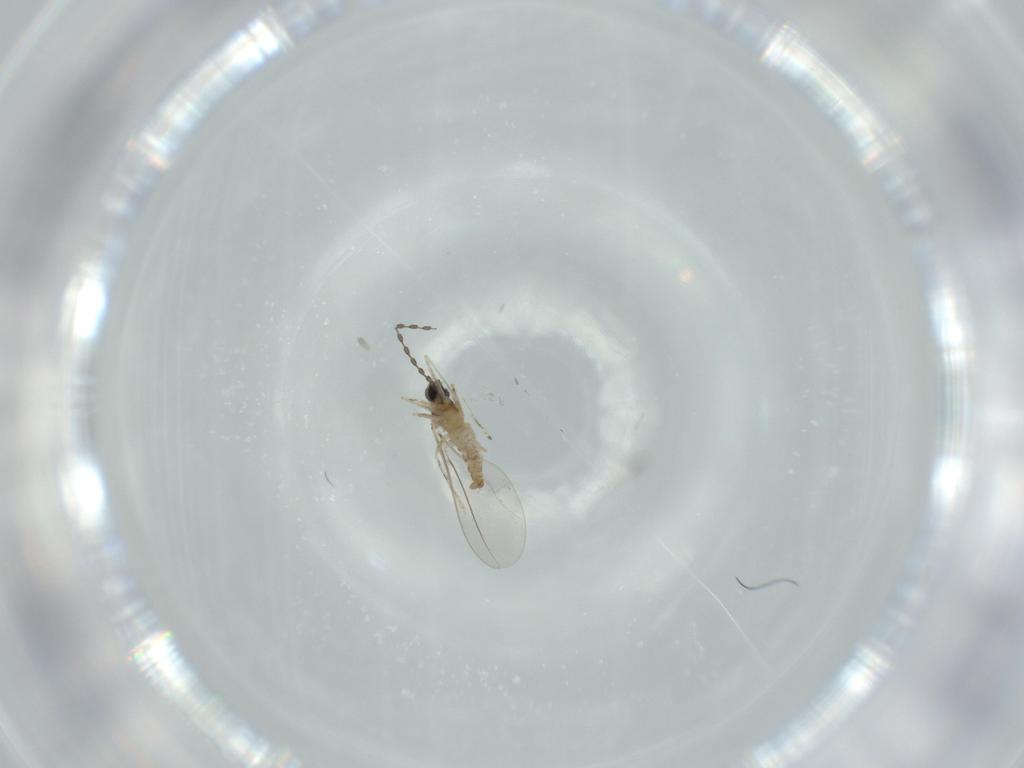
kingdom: Animalia
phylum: Arthropoda
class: Insecta
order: Diptera
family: Cecidomyiidae
